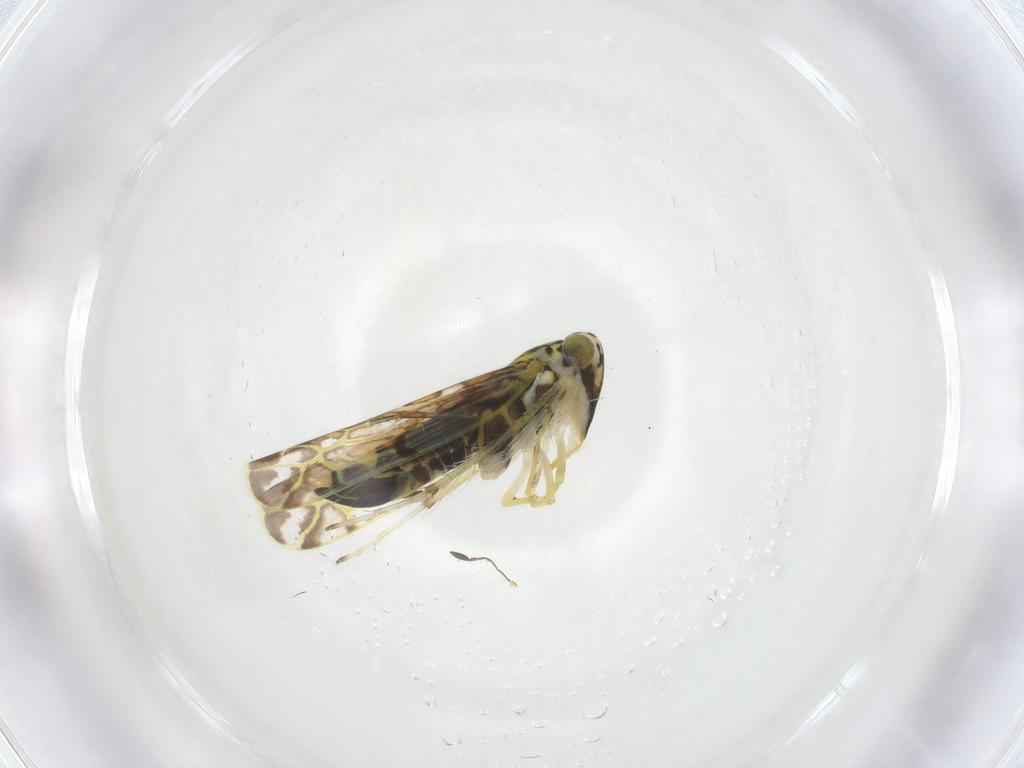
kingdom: Animalia
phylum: Arthropoda
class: Insecta
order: Hemiptera
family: Cicadellidae
